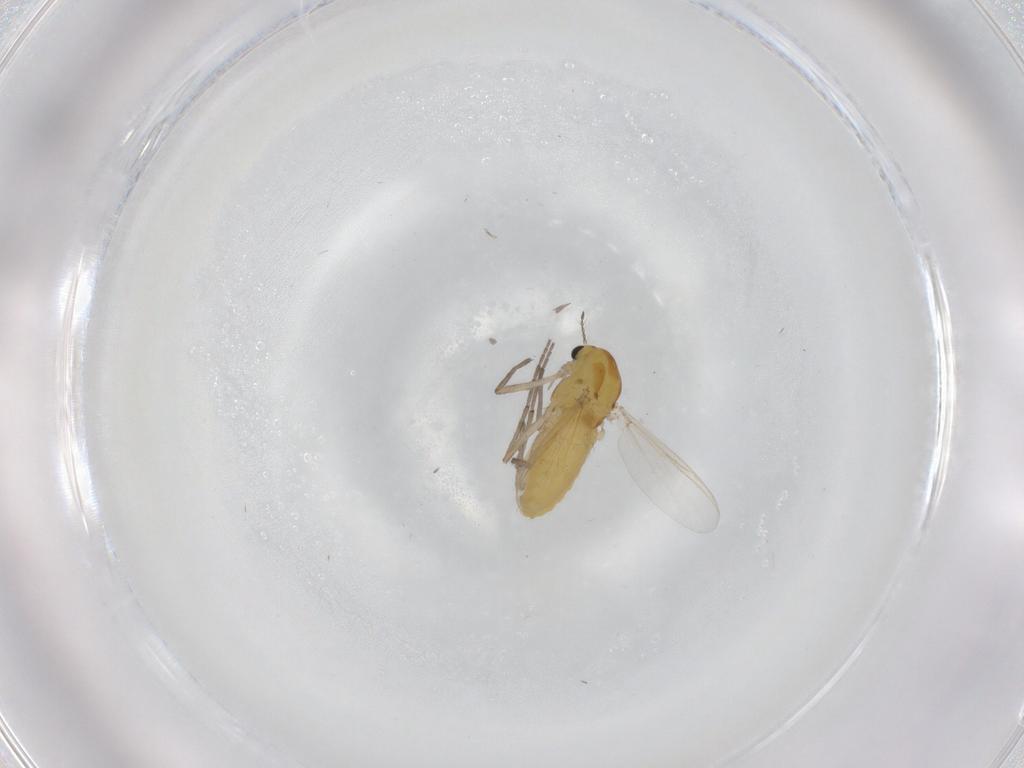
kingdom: Animalia
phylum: Arthropoda
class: Insecta
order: Diptera
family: Chironomidae
